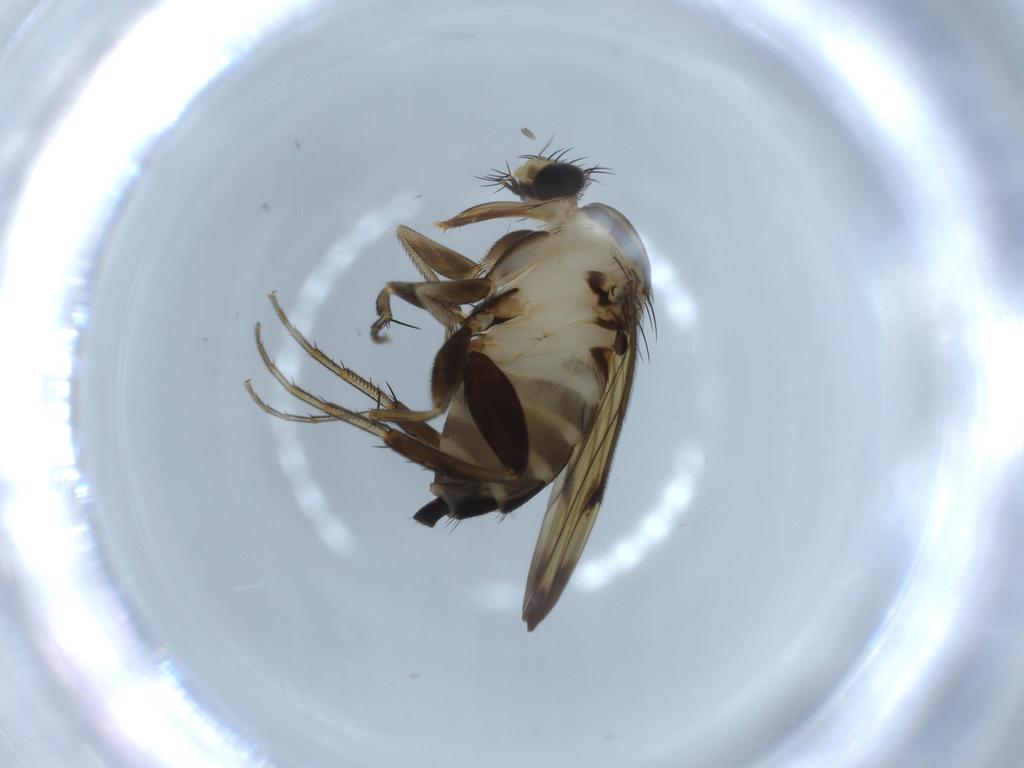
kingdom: Animalia
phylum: Arthropoda
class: Insecta
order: Diptera
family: Phoridae
